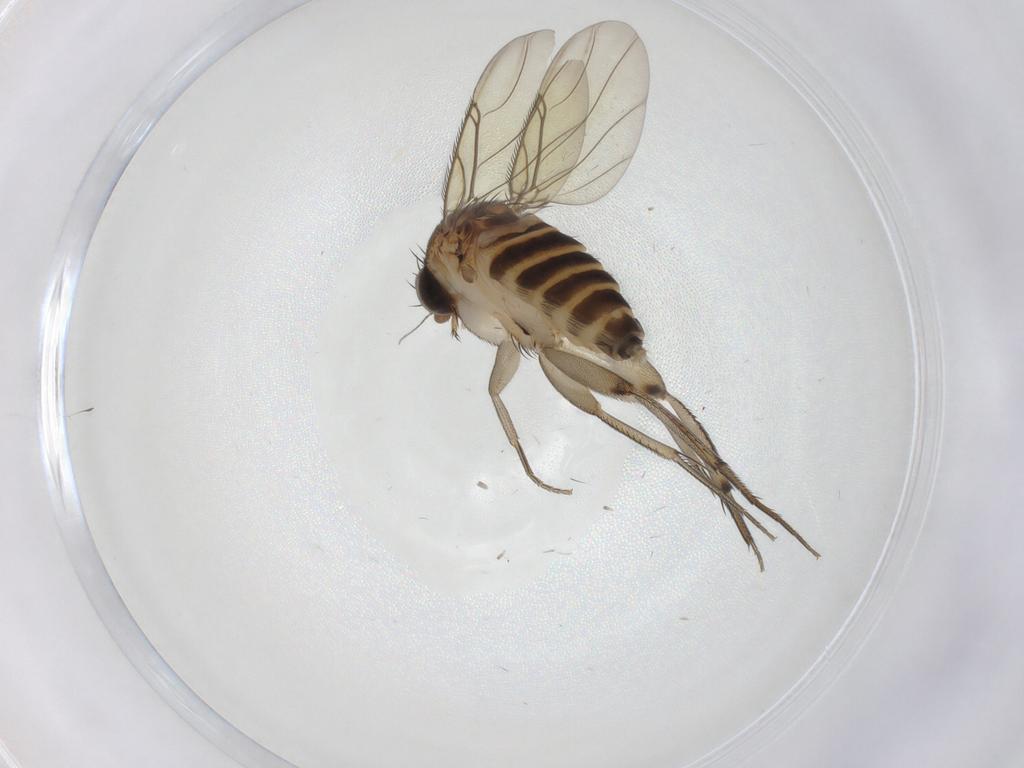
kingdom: Animalia
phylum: Arthropoda
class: Insecta
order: Diptera
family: Phoridae
